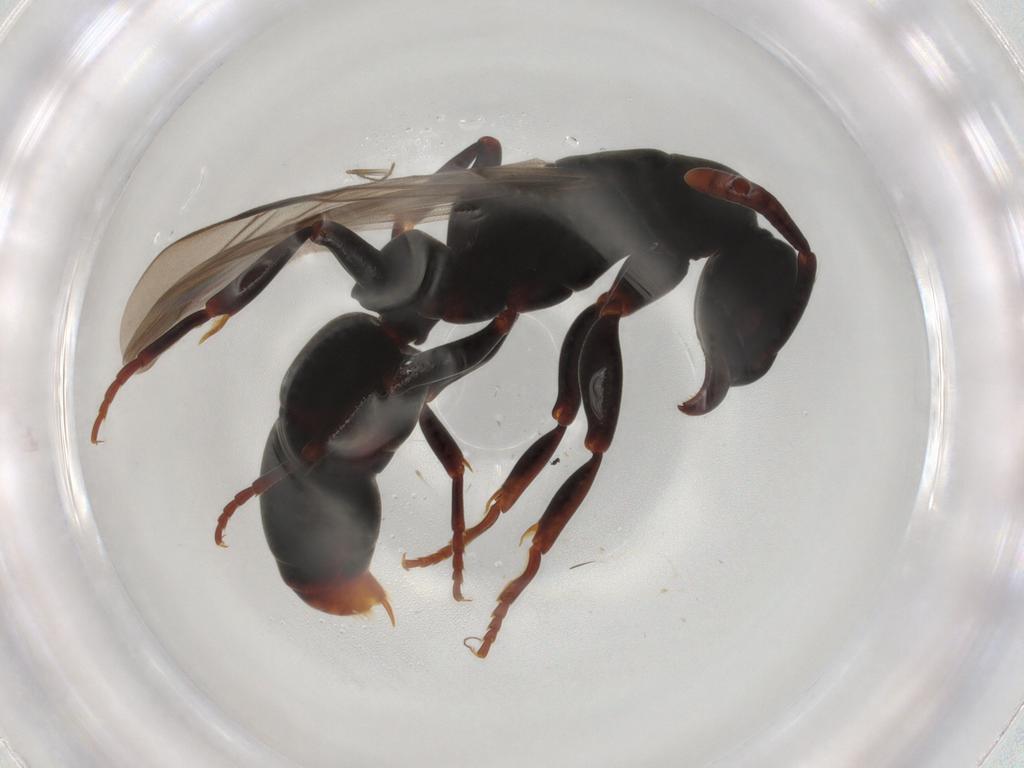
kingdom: Animalia
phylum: Arthropoda
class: Insecta
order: Hymenoptera
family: Formicidae
